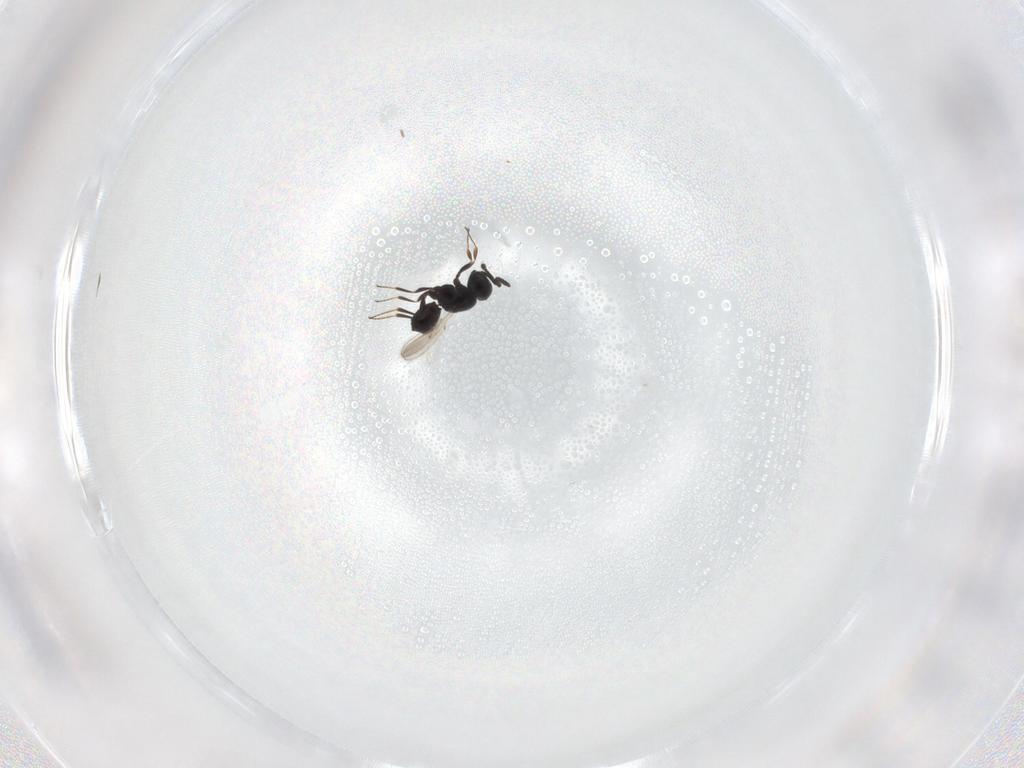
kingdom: Animalia
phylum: Arthropoda
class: Insecta
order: Hymenoptera
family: Scelionidae
